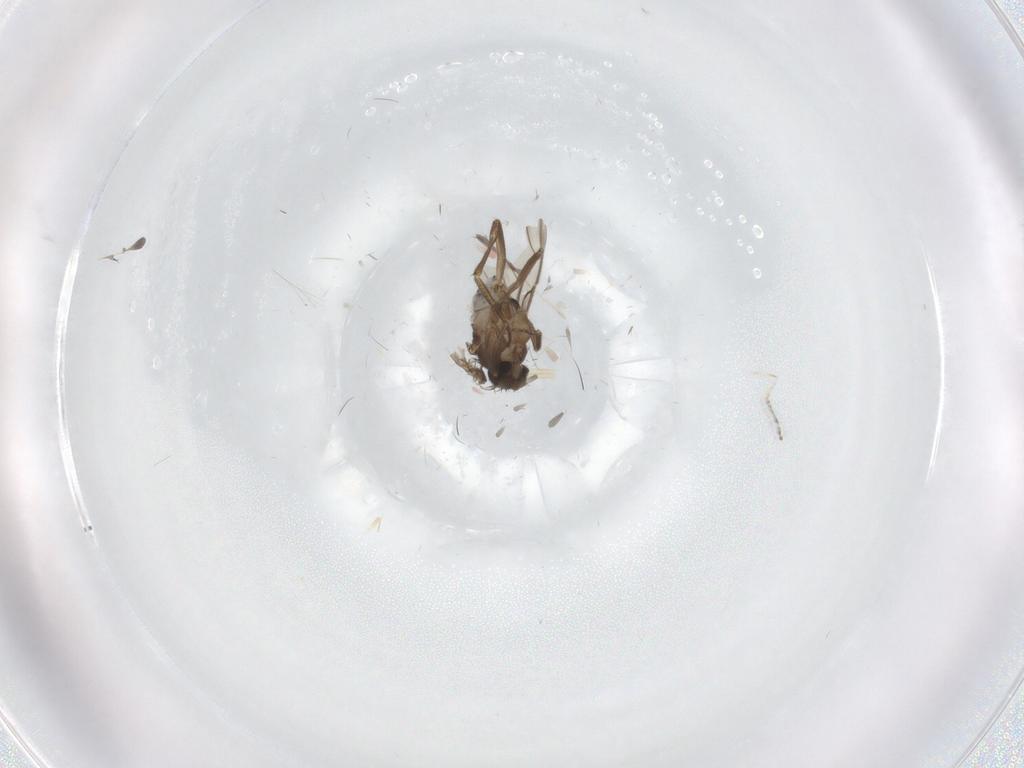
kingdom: Animalia
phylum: Arthropoda
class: Insecta
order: Diptera
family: Phoridae
